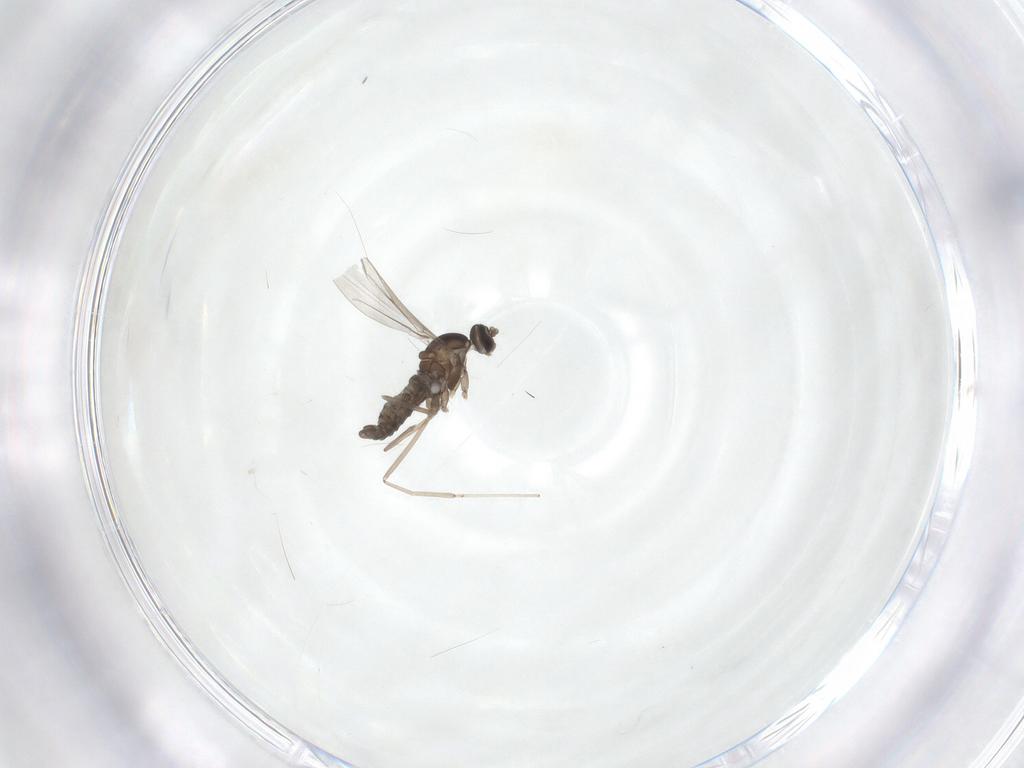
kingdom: Animalia
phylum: Arthropoda
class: Insecta
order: Diptera
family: Cecidomyiidae
